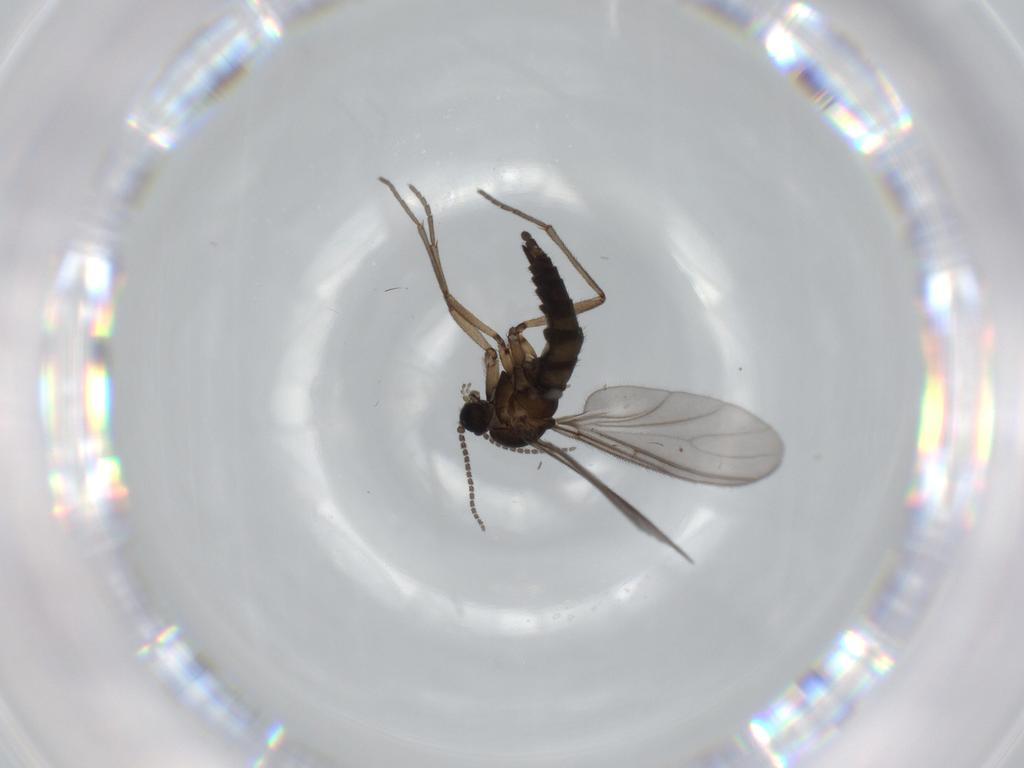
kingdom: Animalia
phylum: Arthropoda
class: Insecta
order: Diptera
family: Sciaridae
